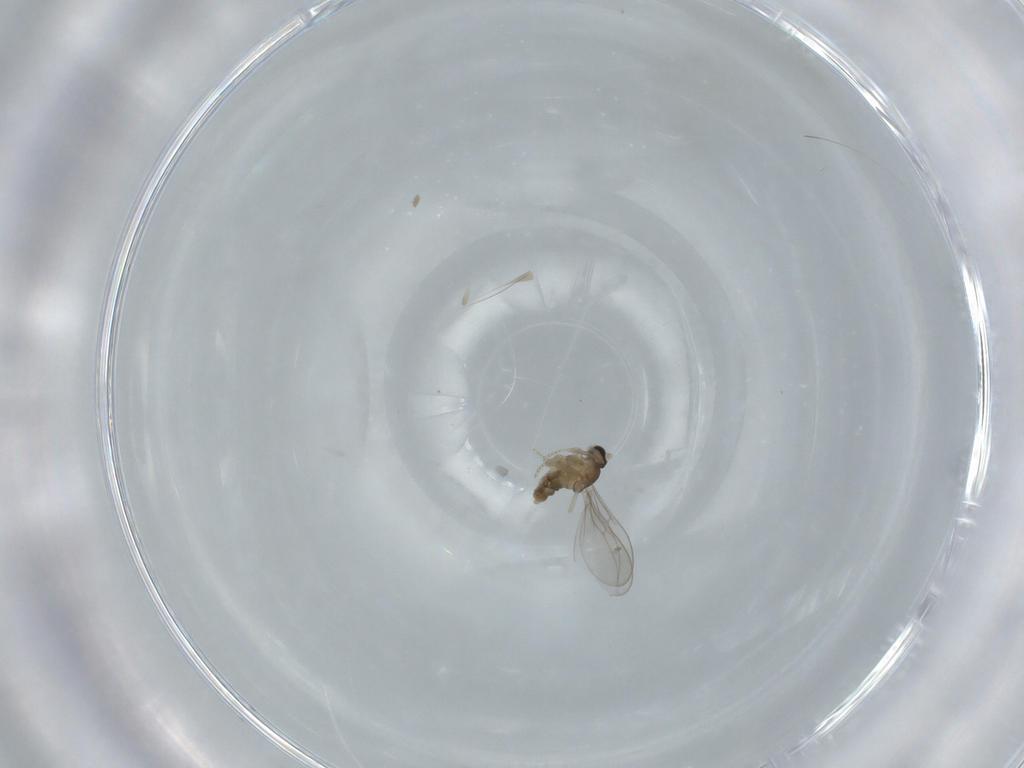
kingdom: Animalia
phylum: Arthropoda
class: Insecta
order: Diptera
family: Cecidomyiidae
